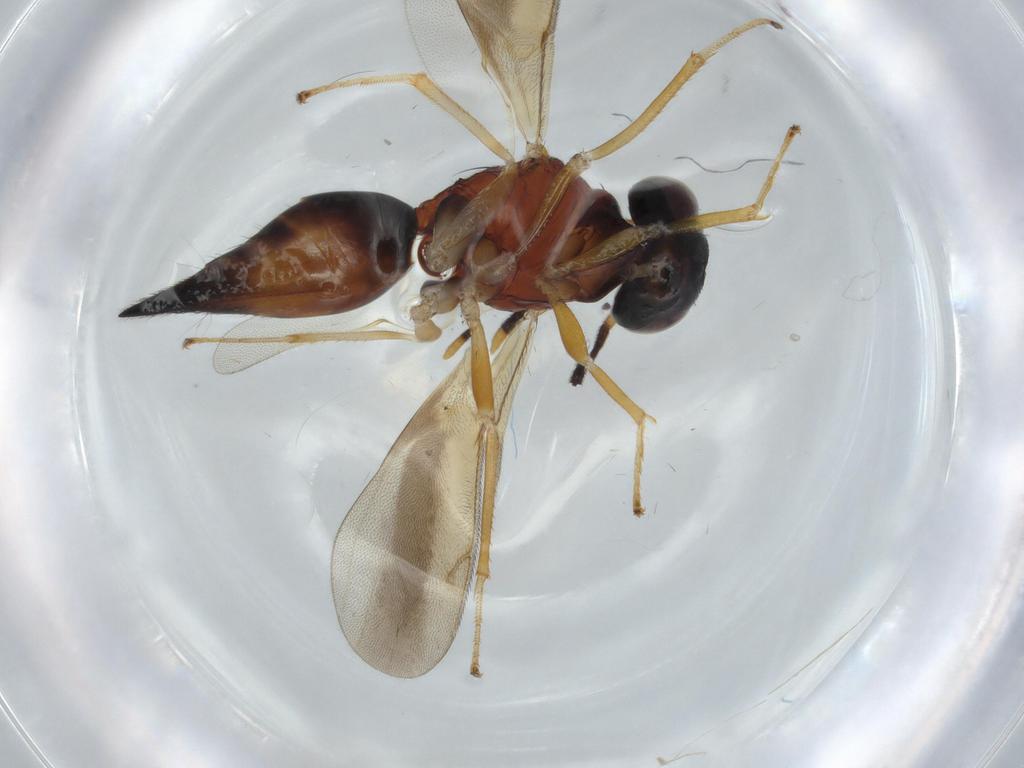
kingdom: Animalia
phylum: Arthropoda
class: Insecta
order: Hymenoptera
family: Diparidae
